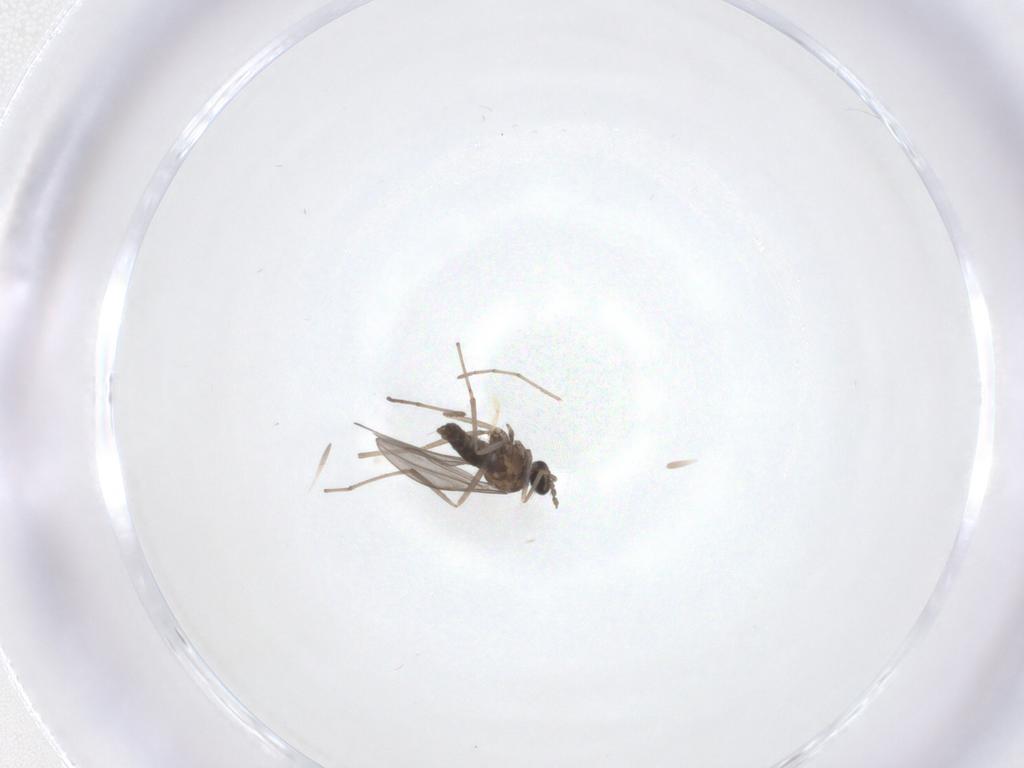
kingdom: Animalia
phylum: Arthropoda
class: Insecta
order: Diptera
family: Cecidomyiidae
